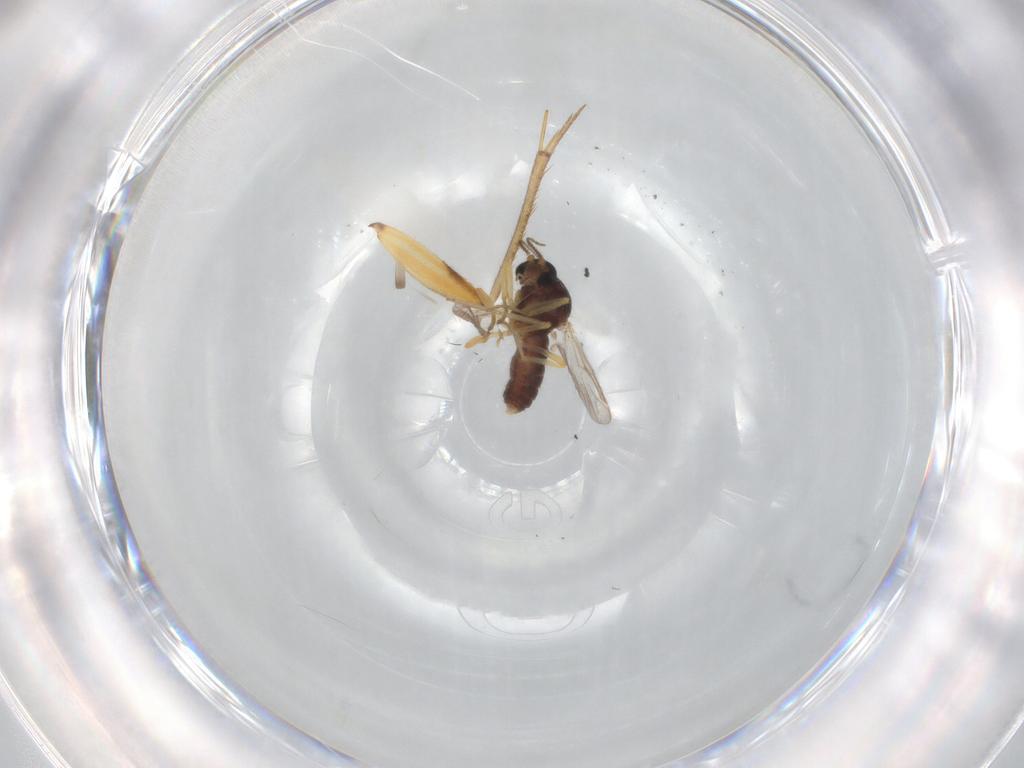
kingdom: Animalia
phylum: Arthropoda
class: Insecta
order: Diptera
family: Mycetophilidae
